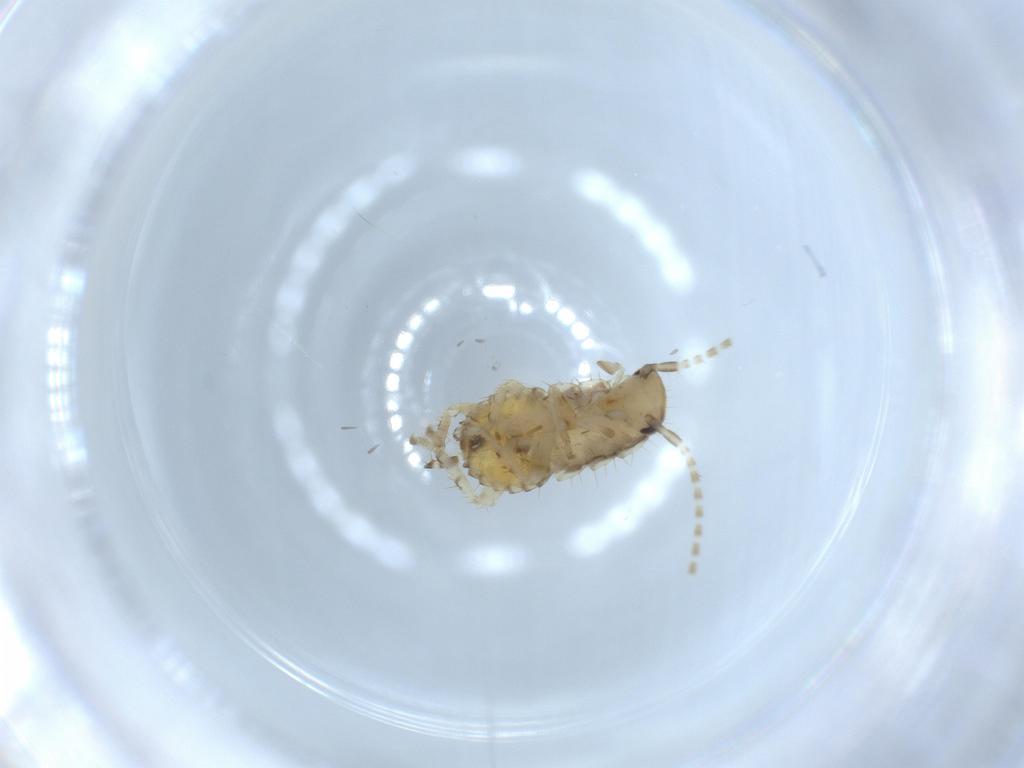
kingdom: Animalia
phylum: Arthropoda
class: Insecta
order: Blattodea
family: Ectobiidae
